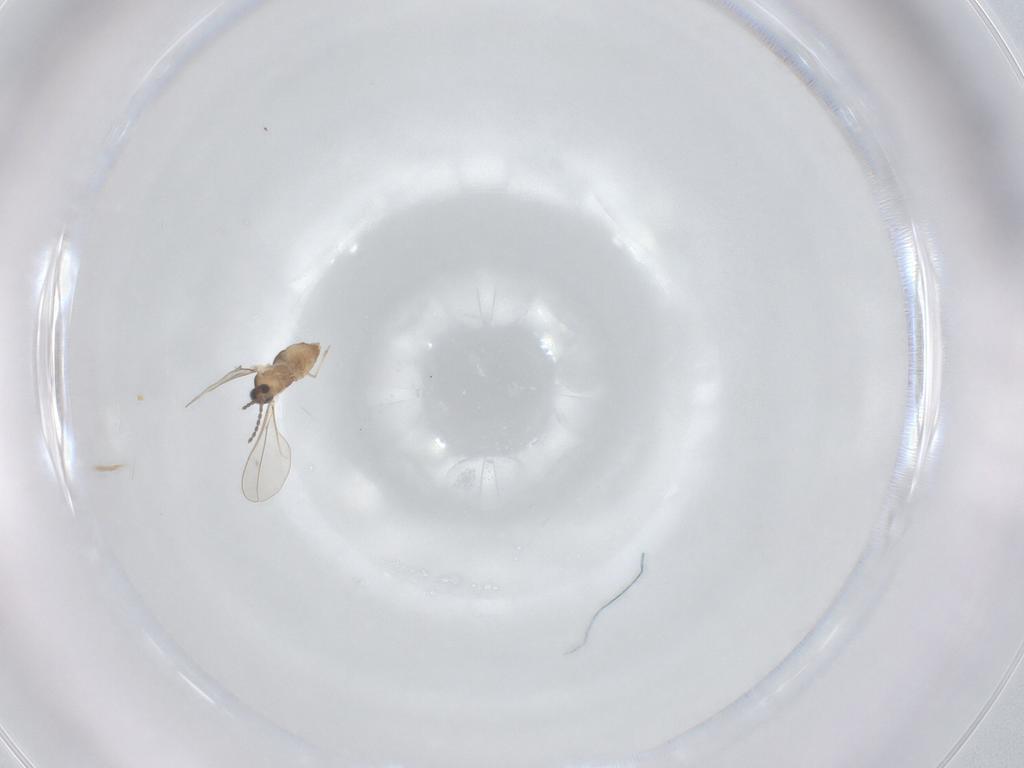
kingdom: Animalia
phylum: Arthropoda
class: Insecta
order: Diptera
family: Cecidomyiidae
